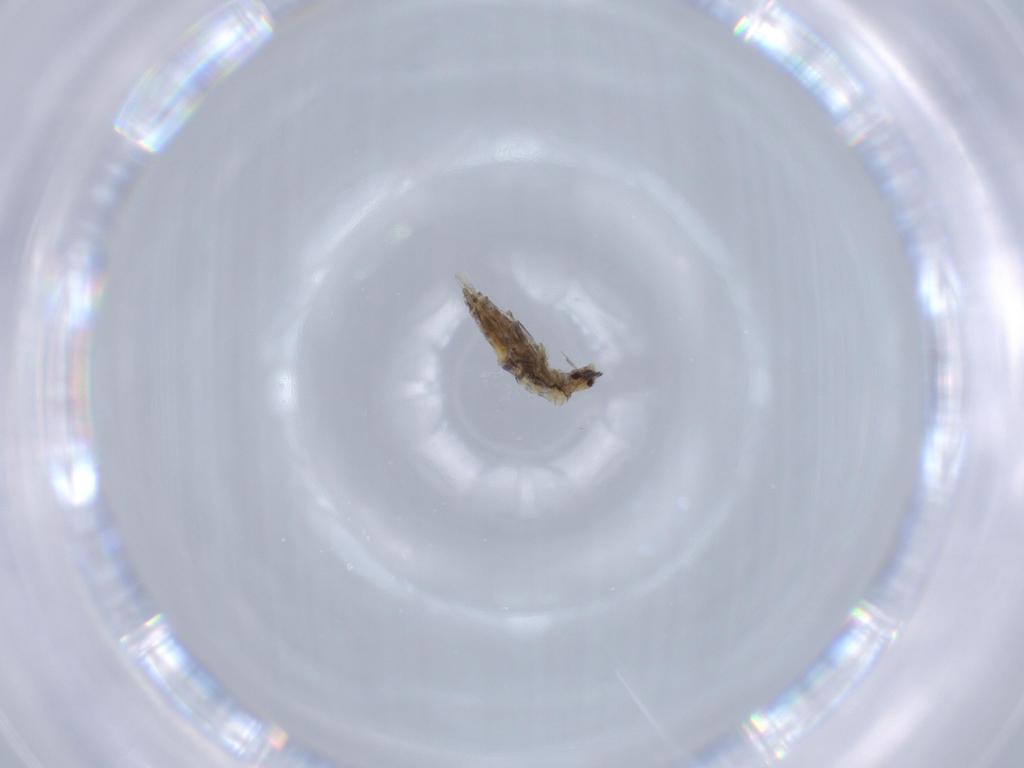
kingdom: Animalia
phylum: Arthropoda
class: Collembola
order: Poduromorpha
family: Hypogastruridae
